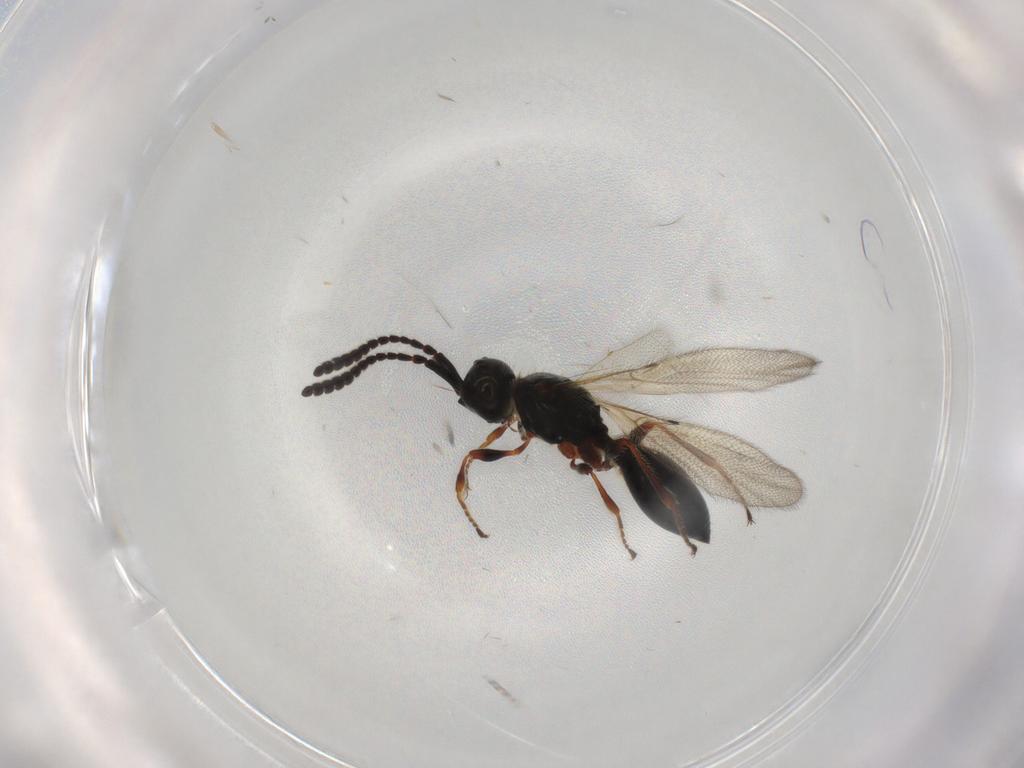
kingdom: Animalia
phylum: Arthropoda
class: Insecta
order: Hymenoptera
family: Diapriidae
